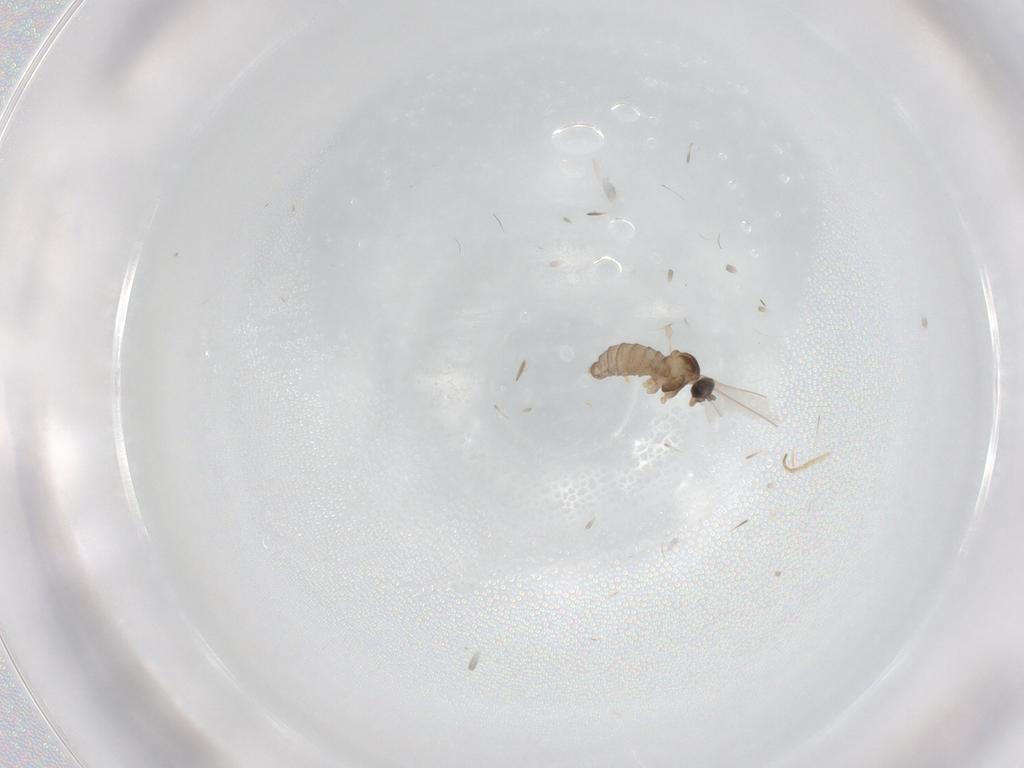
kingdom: Animalia
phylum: Arthropoda
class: Insecta
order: Diptera
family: Cecidomyiidae
